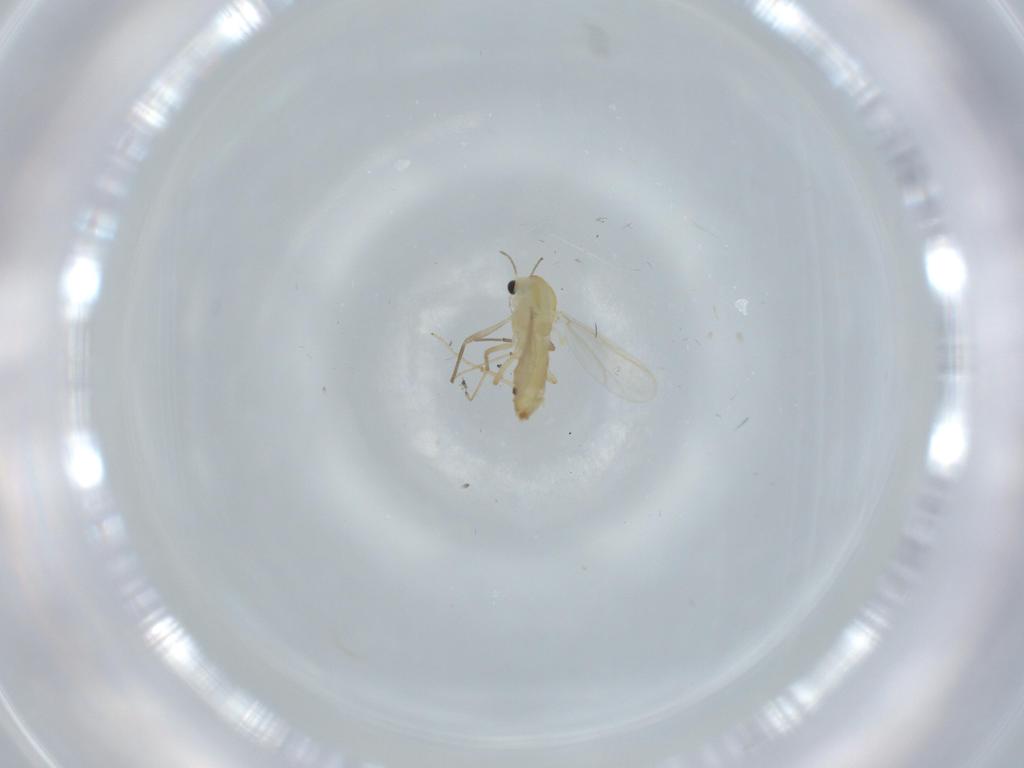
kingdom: Animalia
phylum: Arthropoda
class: Insecta
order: Diptera
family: Chironomidae
